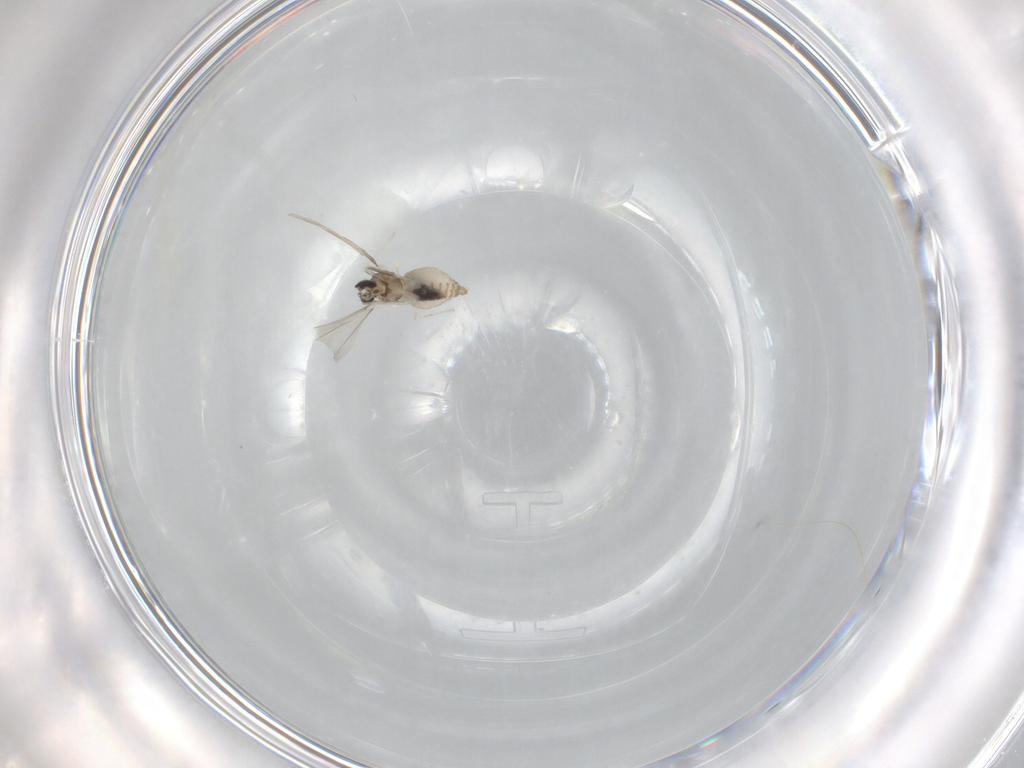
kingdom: Animalia
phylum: Arthropoda
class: Insecta
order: Diptera
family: Cecidomyiidae
